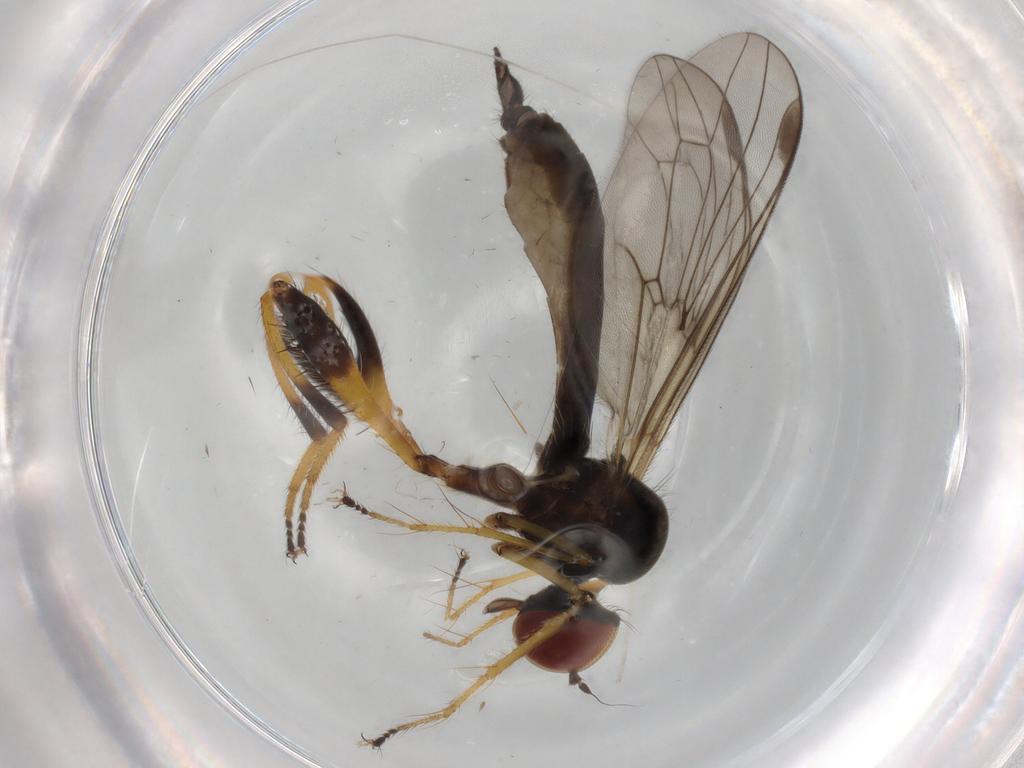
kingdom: Animalia
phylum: Arthropoda
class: Insecta
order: Diptera
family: Hybotidae
